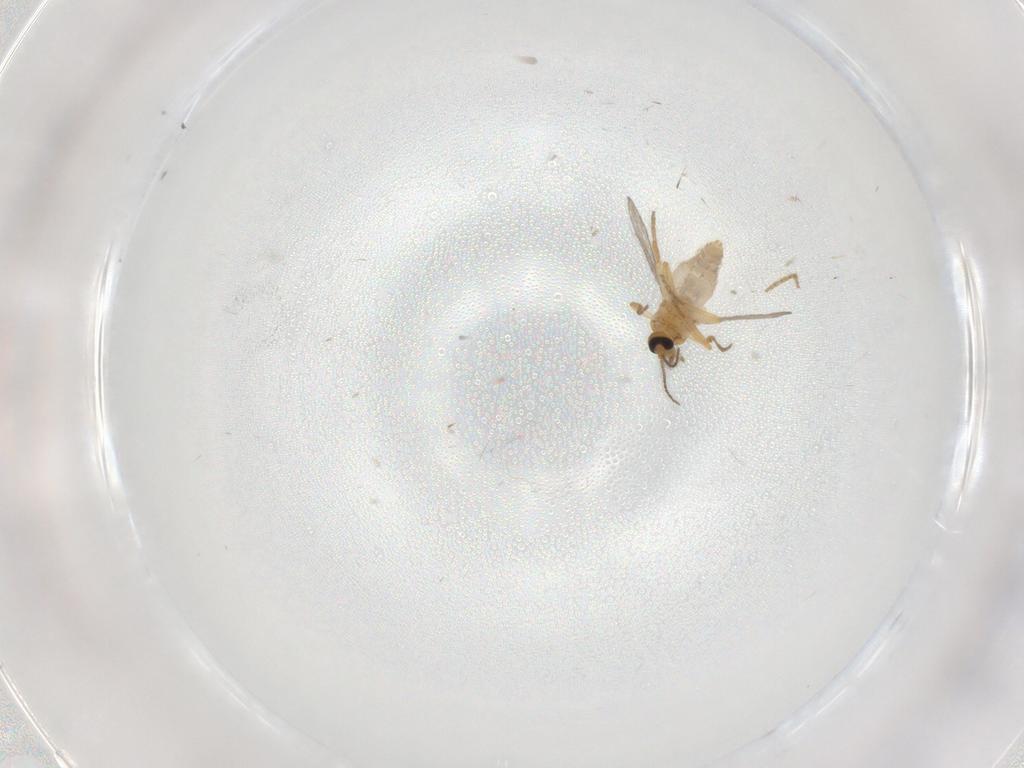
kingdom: Animalia
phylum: Arthropoda
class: Insecta
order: Diptera
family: Ceratopogonidae
